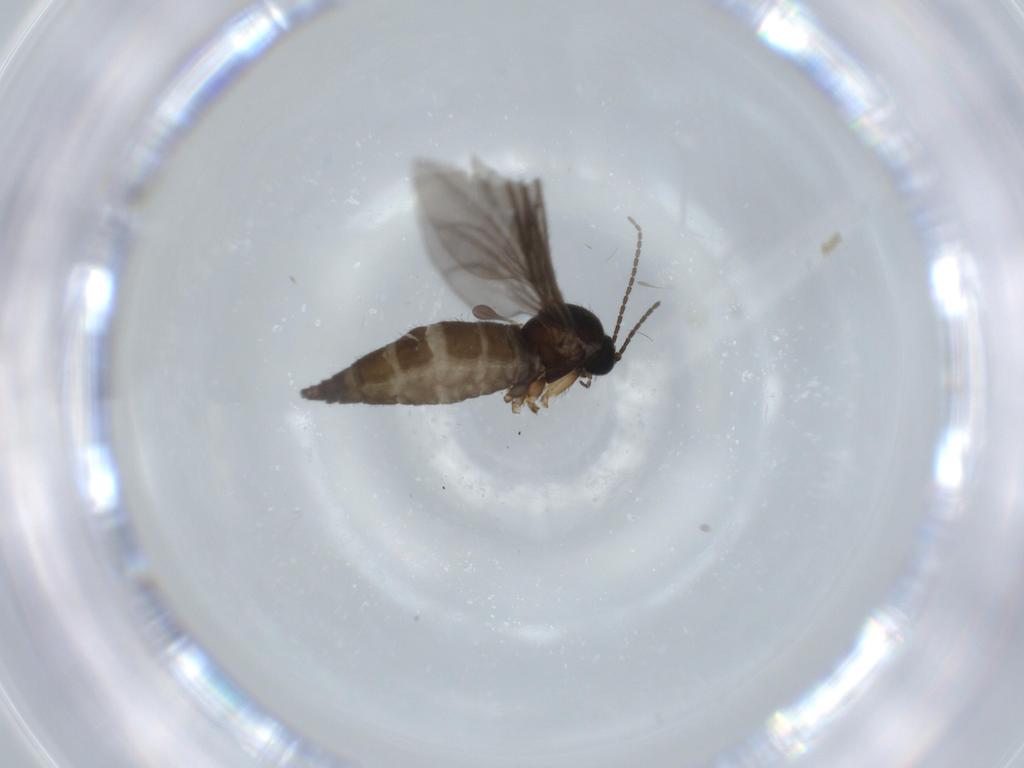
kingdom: Animalia
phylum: Arthropoda
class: Insecta
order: Diptera
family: Sciaridae
